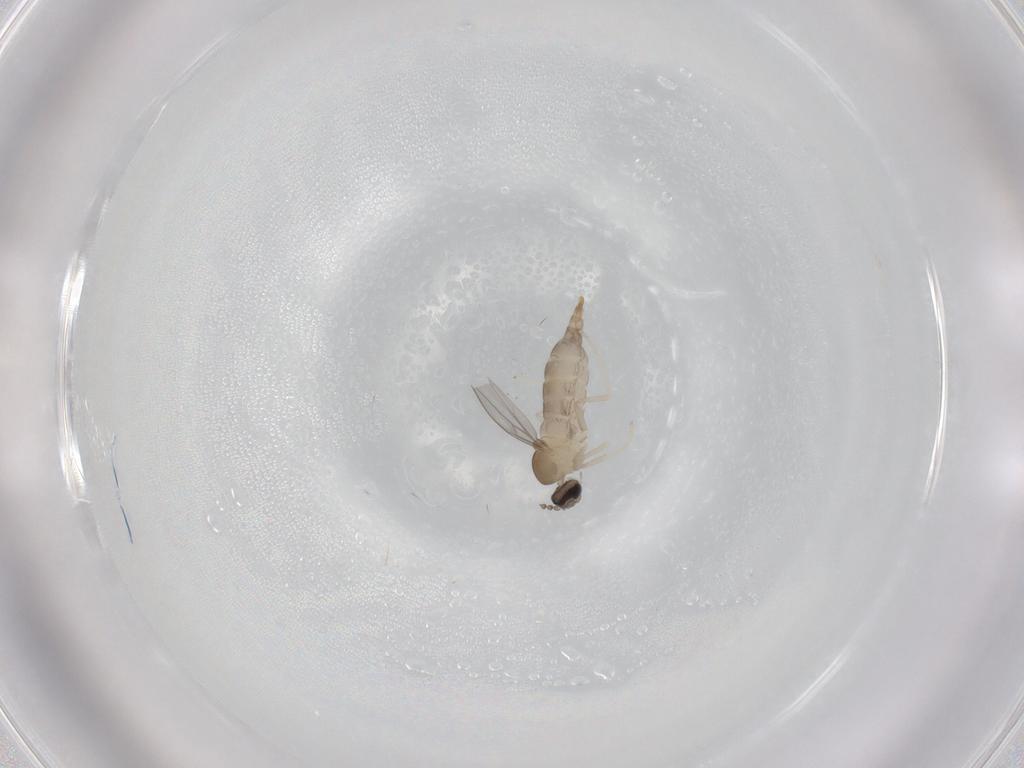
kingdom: Animalia
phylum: Arthropoda
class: Insecta
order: Diptera
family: Cecidomyiidae
